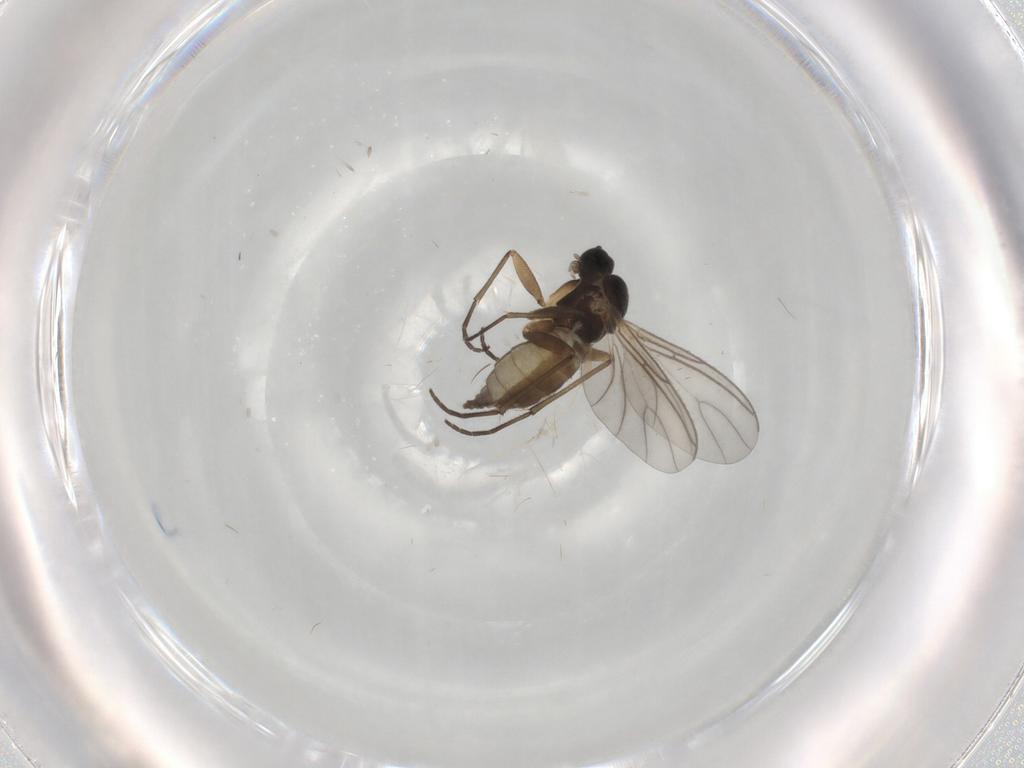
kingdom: Animalia
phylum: Arthropoda
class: Insecta
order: Diptera
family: Sciaridae
